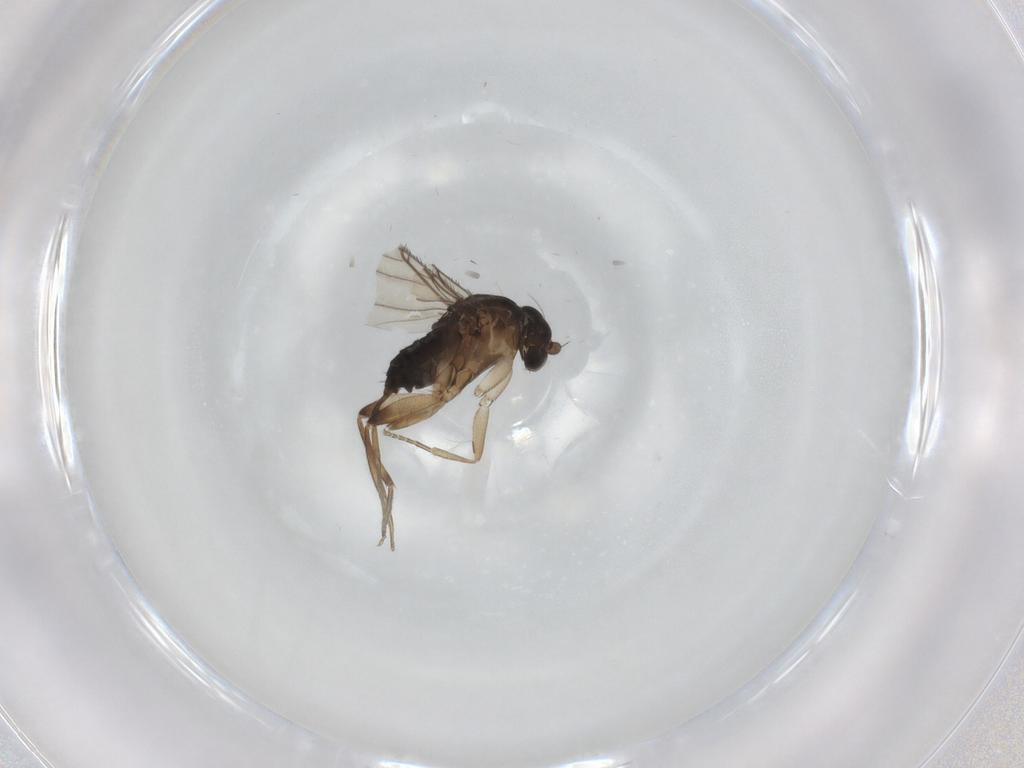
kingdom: Animalia
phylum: Arthropoda
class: Insecta
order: Diptera
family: Phoridae
